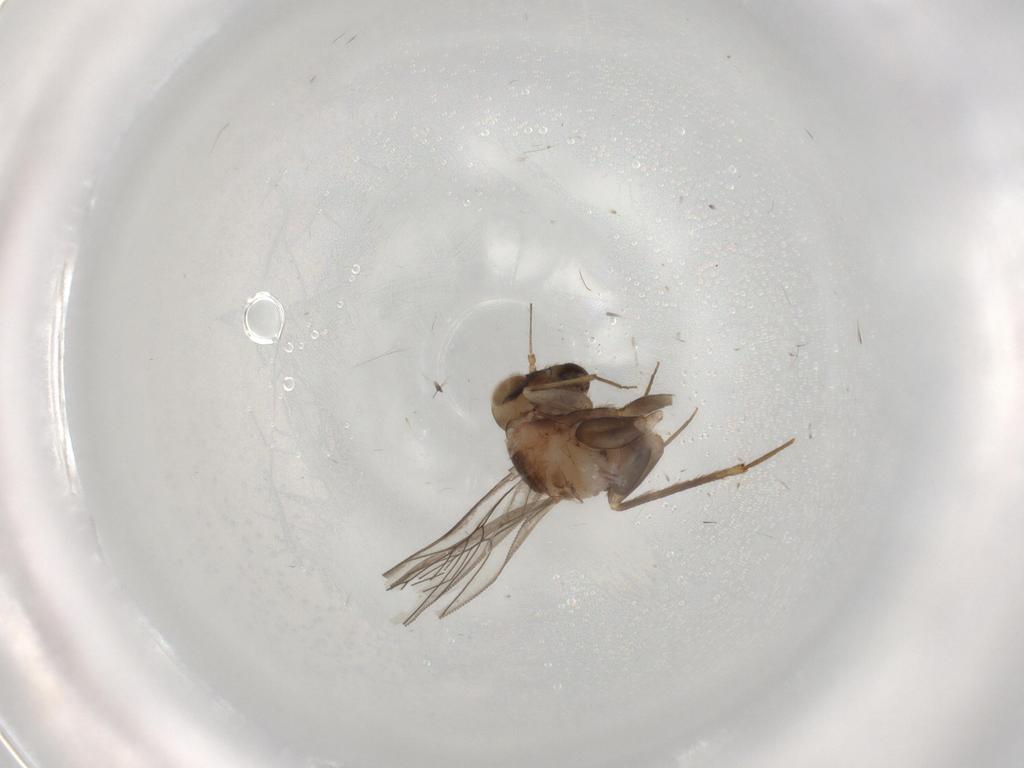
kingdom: Animalia
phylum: Arthropoda
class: Insecta
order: Psocodea
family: Lepidopsocidae
